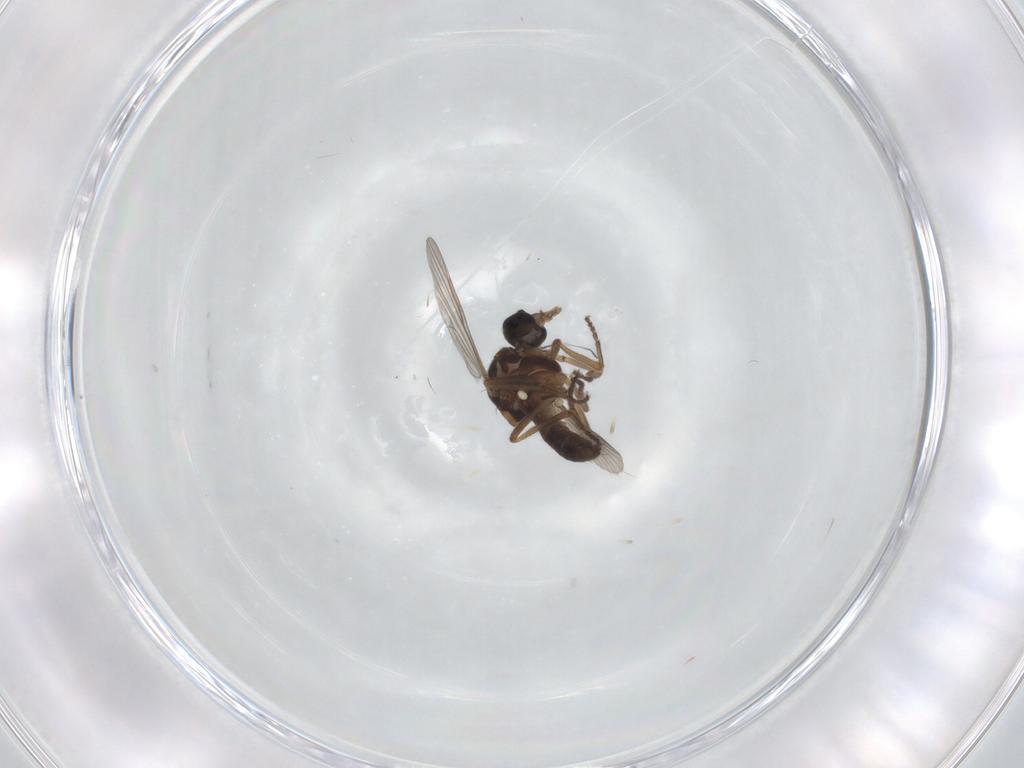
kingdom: Animalia
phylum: Arthropoda
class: Insecta
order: Diptera
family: Ceratopogonidae
